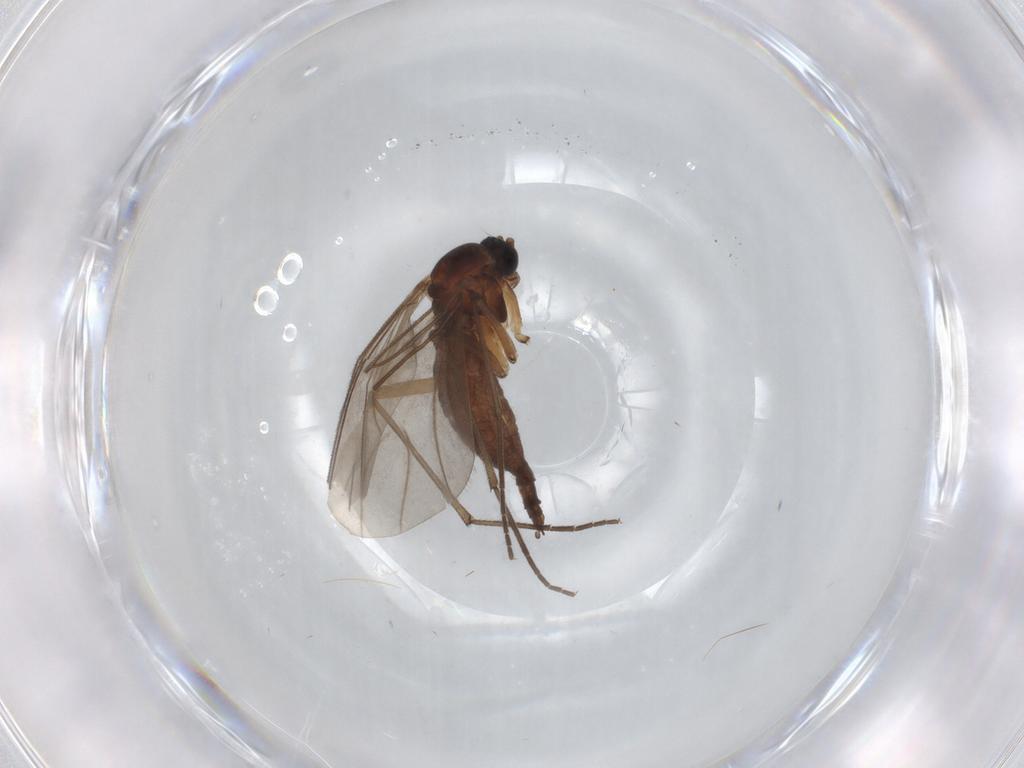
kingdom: Animalia
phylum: Arthropoda
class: Insecta
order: Diptera
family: Sciaridae
